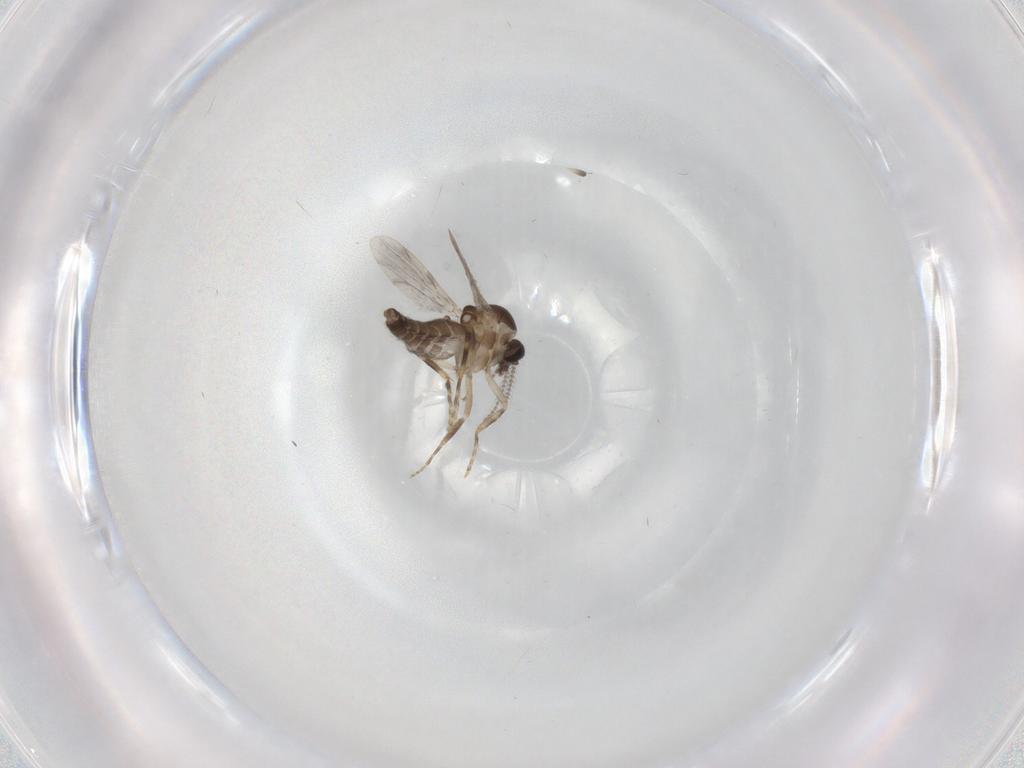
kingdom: Animalia
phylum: Arthropoda
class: Insecta
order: Diptera
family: Ceratopogonidae
